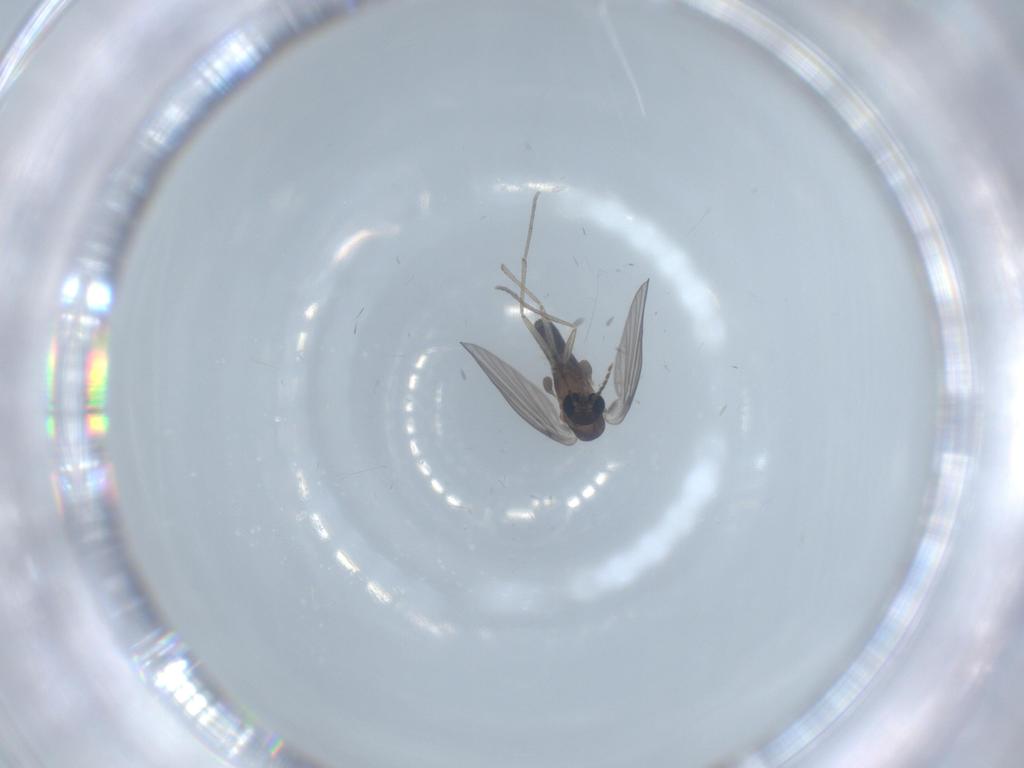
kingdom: Animalia
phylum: Arthropoda
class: Insecta
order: Diptera
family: Psychodidae
